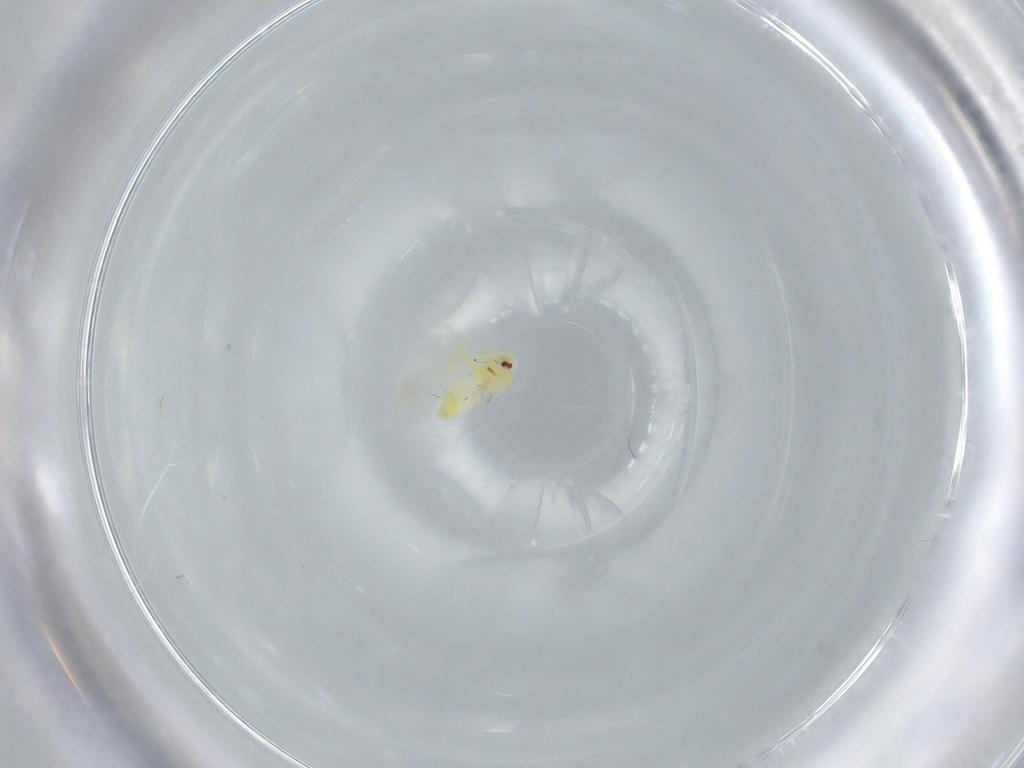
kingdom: Animalia
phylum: Arthropoda
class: Insecta
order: Hemiptera
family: Aleyrodidae
